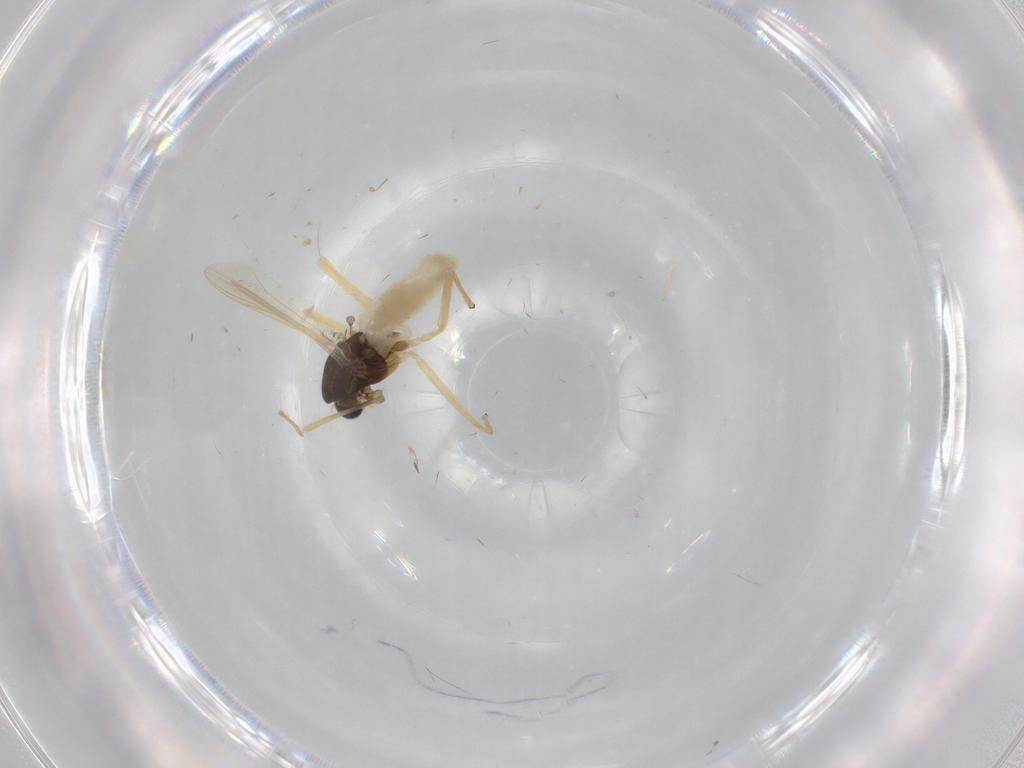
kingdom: Animalia
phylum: Arthropoda
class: Insecta
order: Diptera
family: Chironomidae
